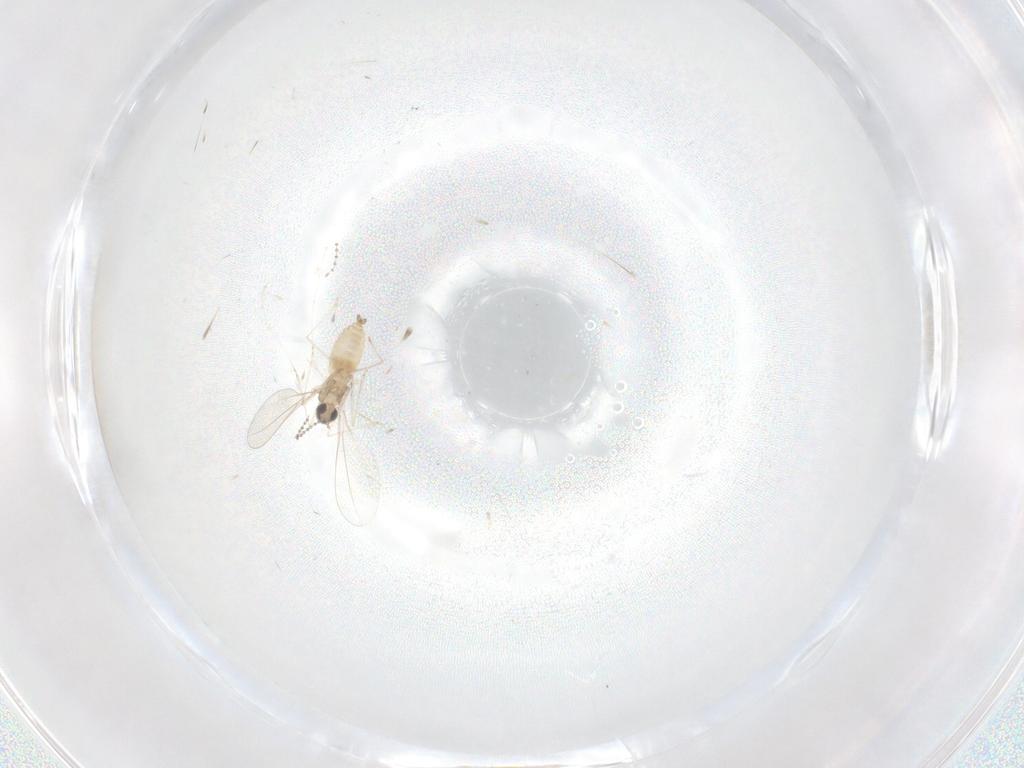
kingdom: Animalia
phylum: Arthropoda
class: Insecta
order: Diptera
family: Cecidomyiidae
